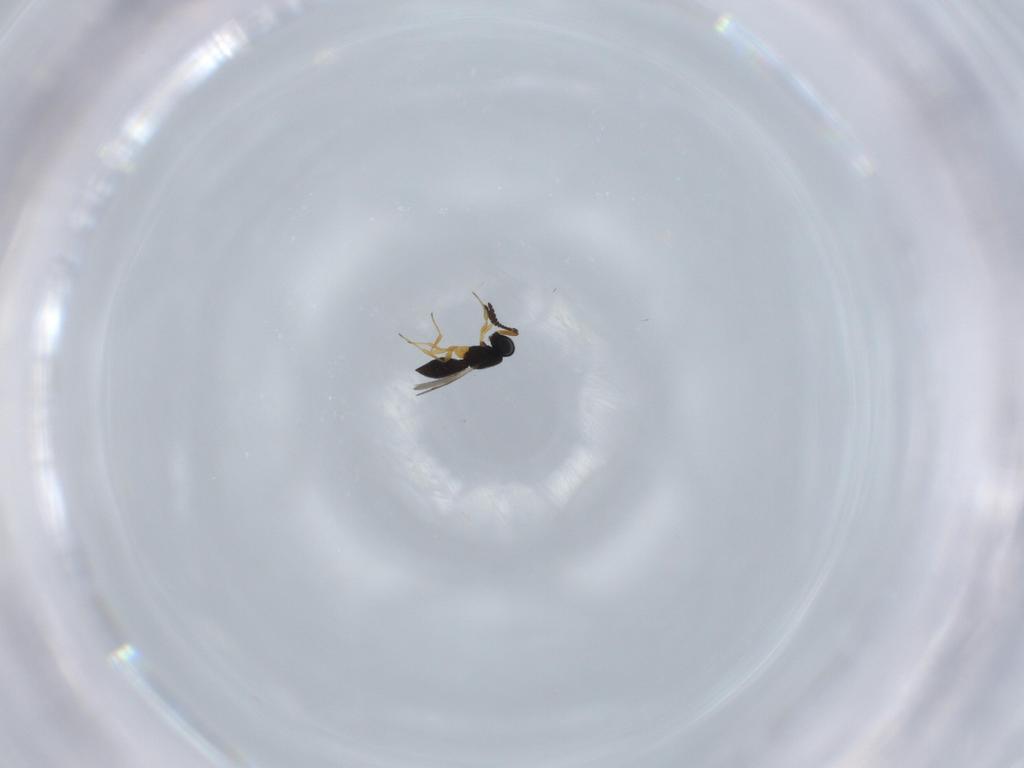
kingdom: Animalia
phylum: Arthropoda
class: Insecta
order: Hymenoptera
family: Scelionidae
